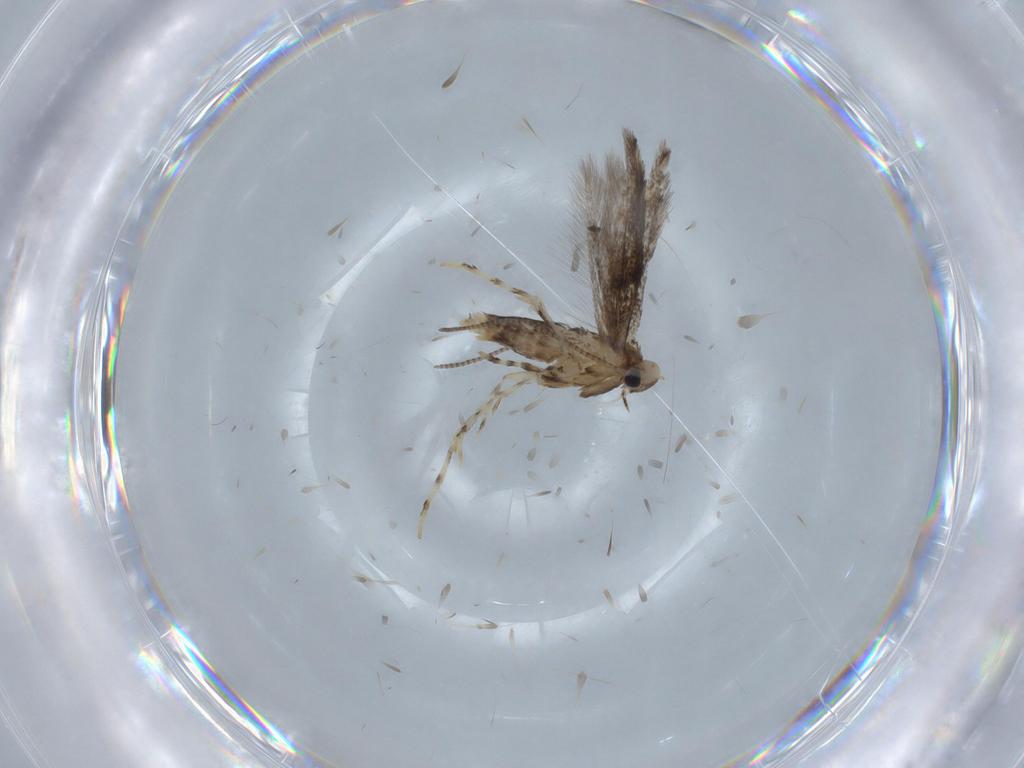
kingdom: Animalia
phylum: Arthropoda
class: Insecta
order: Lepidoptera
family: Gracillariidae
